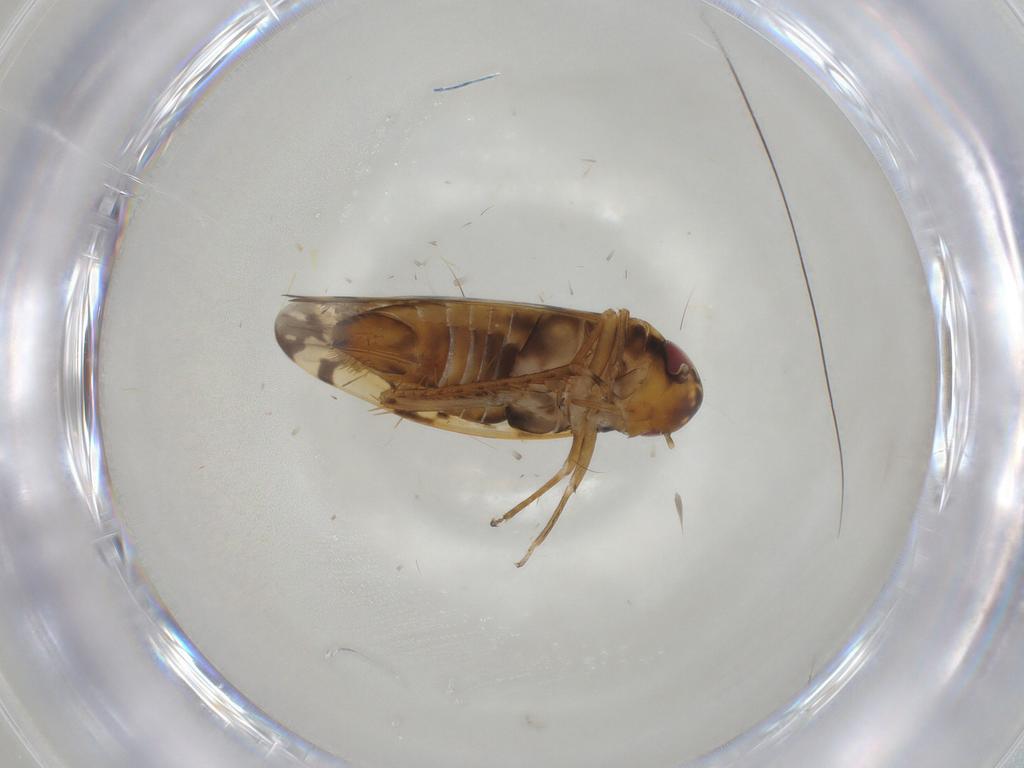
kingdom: Animalia
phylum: Arthropoda
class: Insecta
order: Hemiptera
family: Cicadellidae
